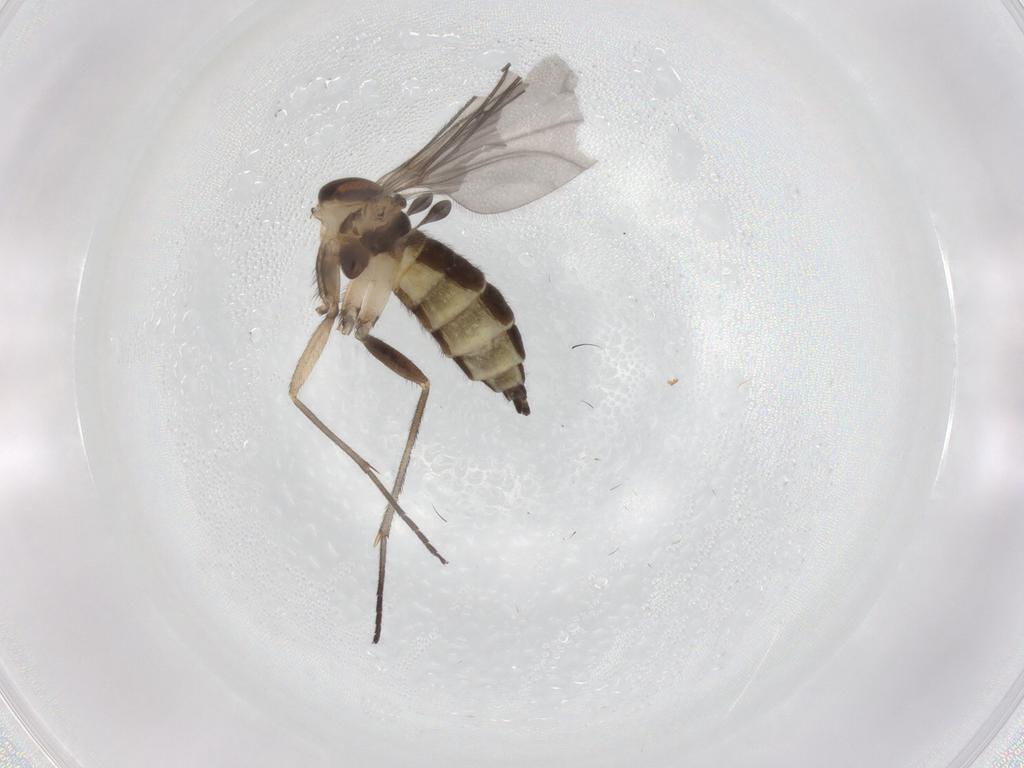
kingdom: Animalia
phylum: Arthropoda
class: Insecta
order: Diptera
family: Sciaridae
